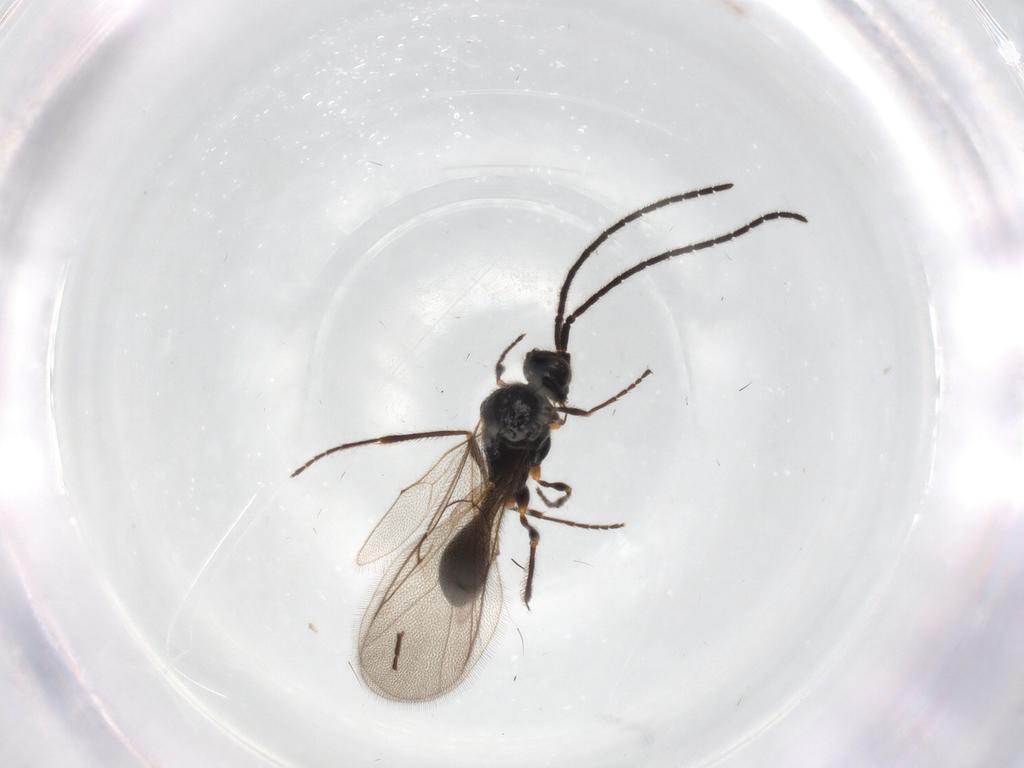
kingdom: Animalia
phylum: Arthropoda
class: Insecta
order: Hymenoptera
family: Diapriidae
